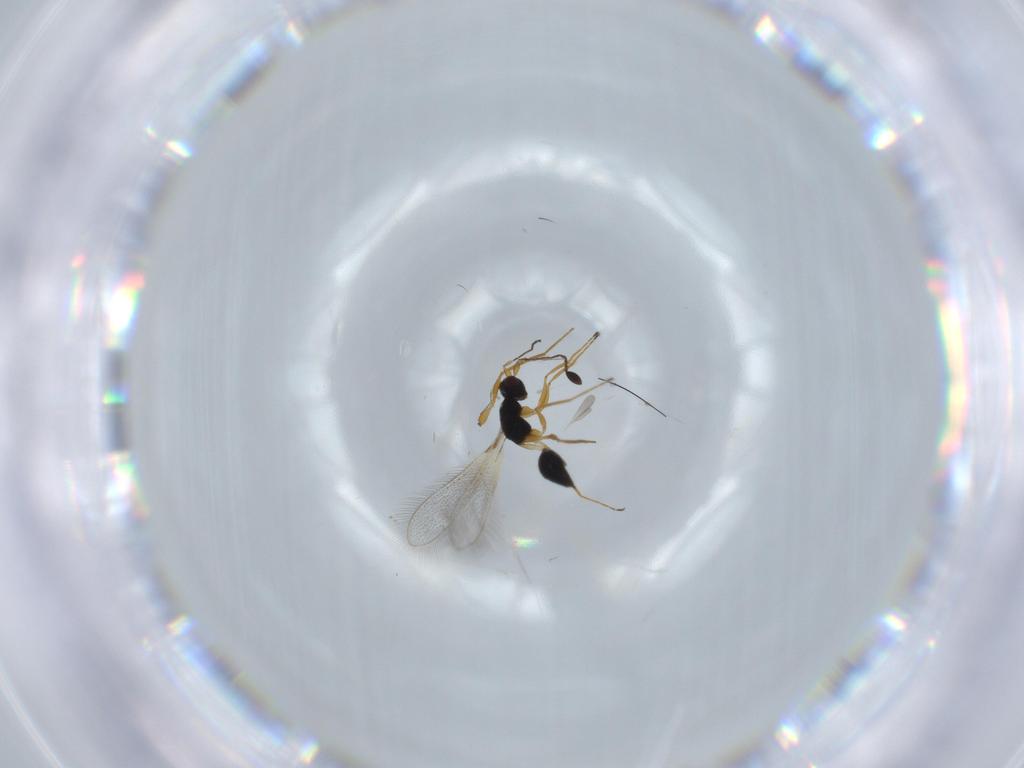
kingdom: Animalia
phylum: Arthropoda
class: Insecta
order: Hymenoptera
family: Mymaridae
